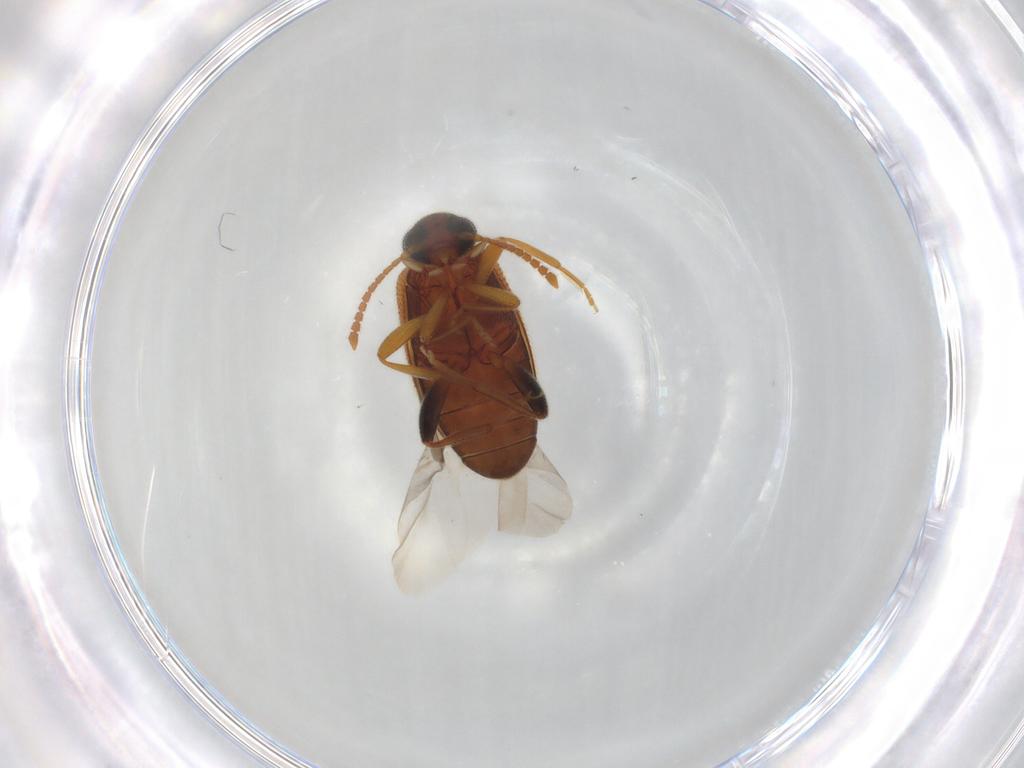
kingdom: Animalia
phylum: Arthropoda
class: Insecta
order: Coleoptera
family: Aderidae
